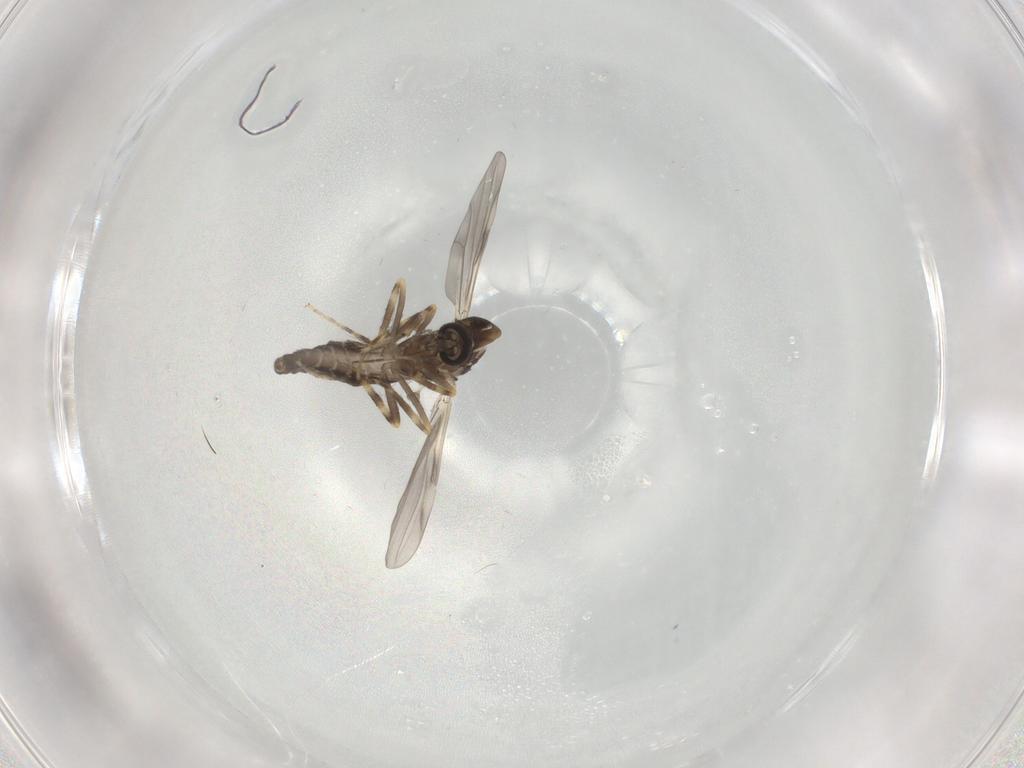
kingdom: Animalia
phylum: Arthropoda
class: Insecta
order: Diptera
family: Ceratopogonidae
